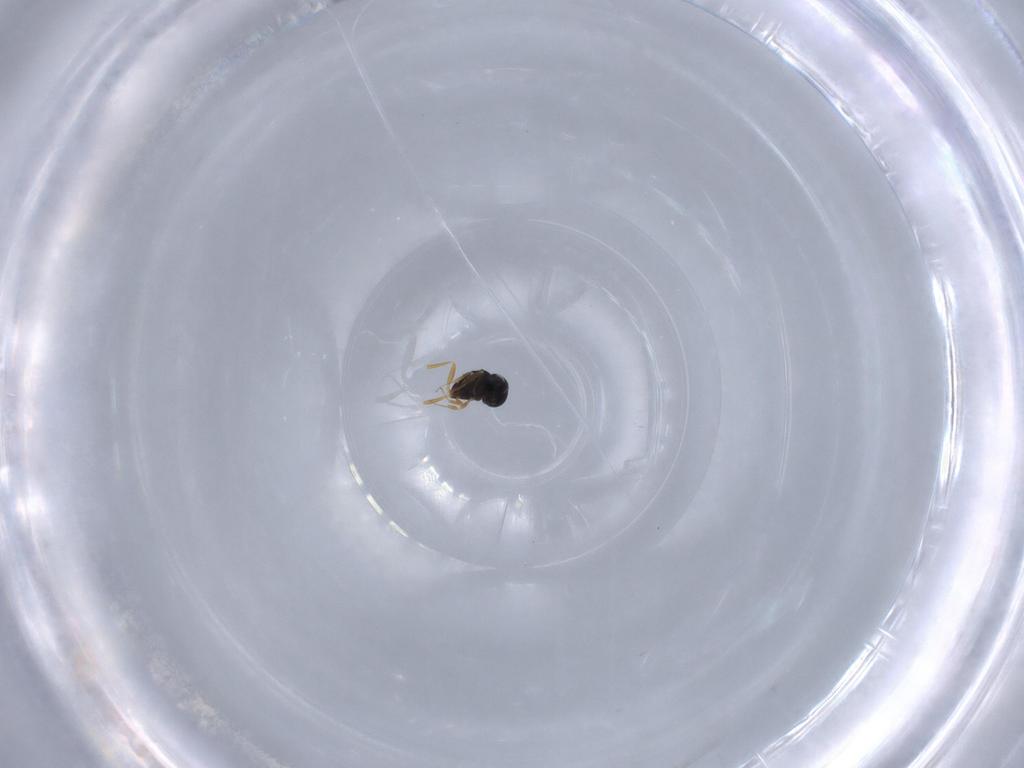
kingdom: Animalia
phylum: Arthropoda
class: Insecta
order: Hymenoptera
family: Scelionidae
